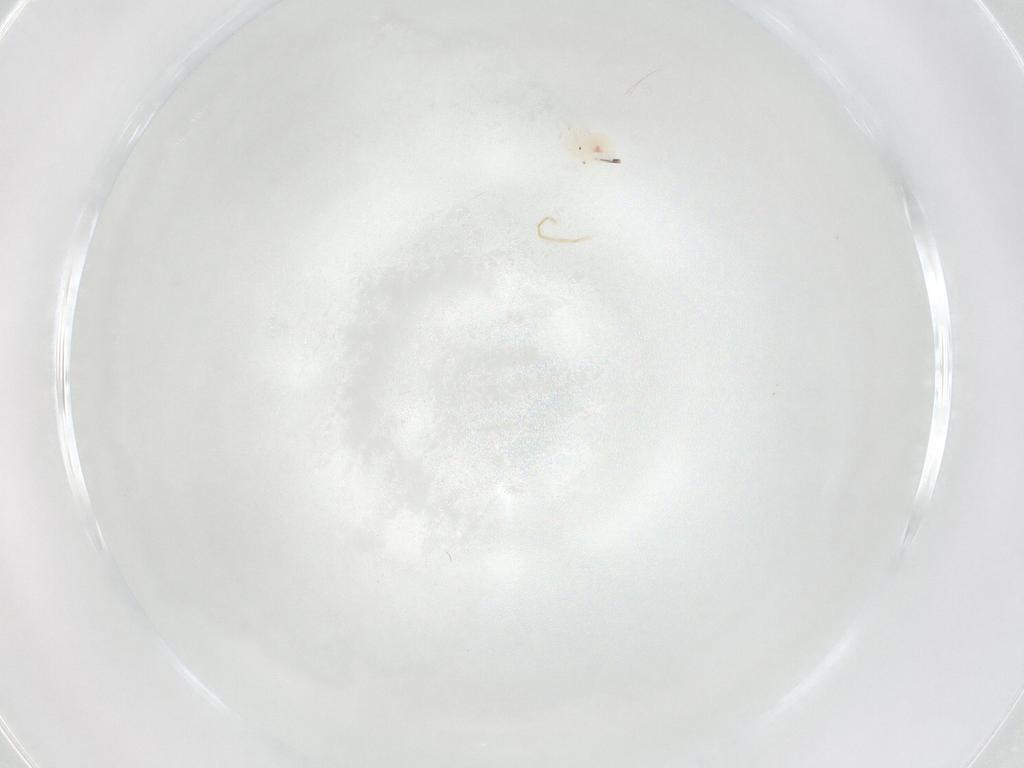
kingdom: Animalia
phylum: Arthropoda
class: Arachnida
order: Trombidiformes
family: Anystidae
